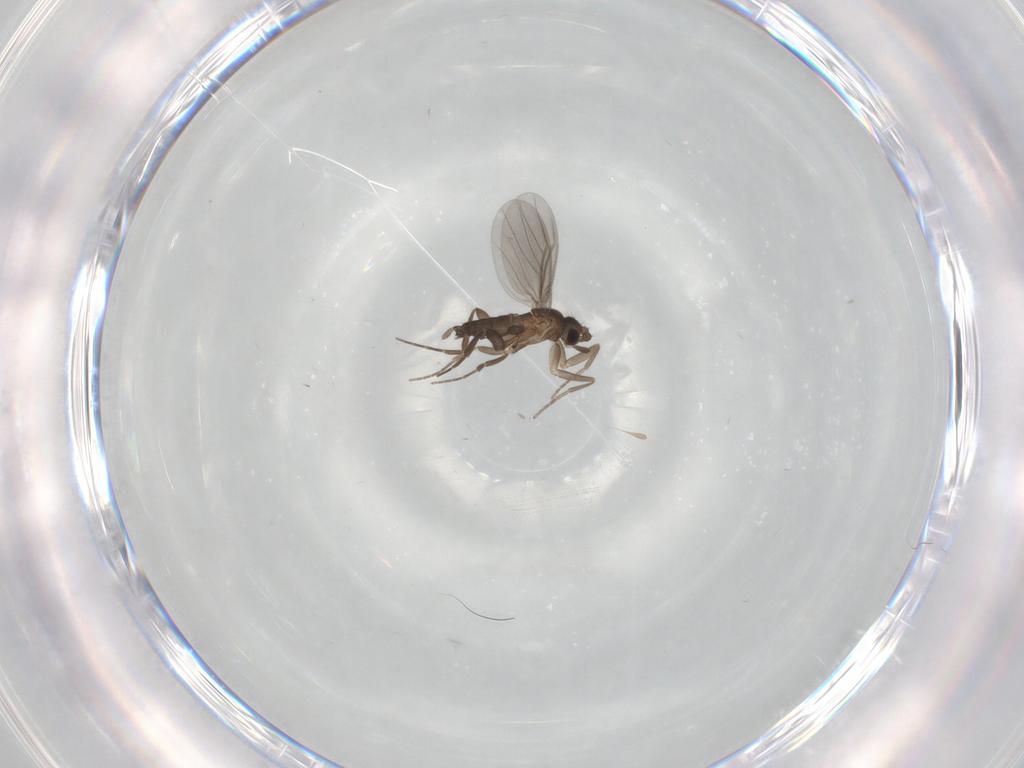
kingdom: Animalia
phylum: Arthropoda
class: Insecta
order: Diptera
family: Phoridae
